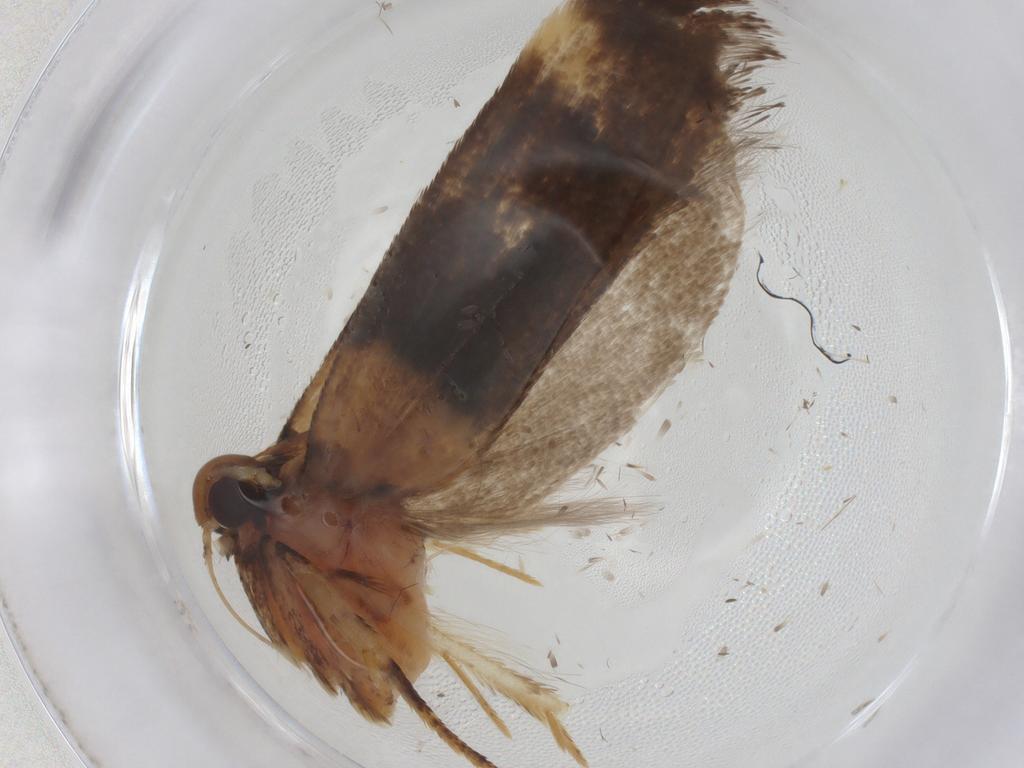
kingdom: Animalia
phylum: Arthropoda
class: Insecta
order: Lepidoptera
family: Gelechiidae
